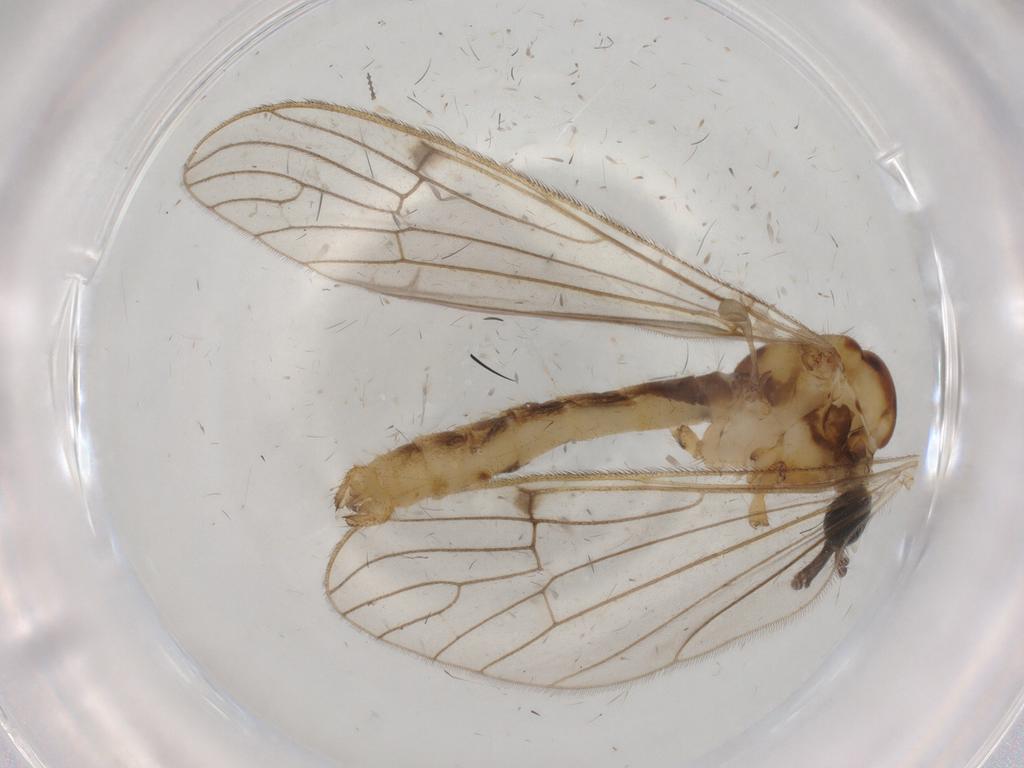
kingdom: Animalia
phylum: Arthropoda
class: Insecta
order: Diptera
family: Limoniidae
